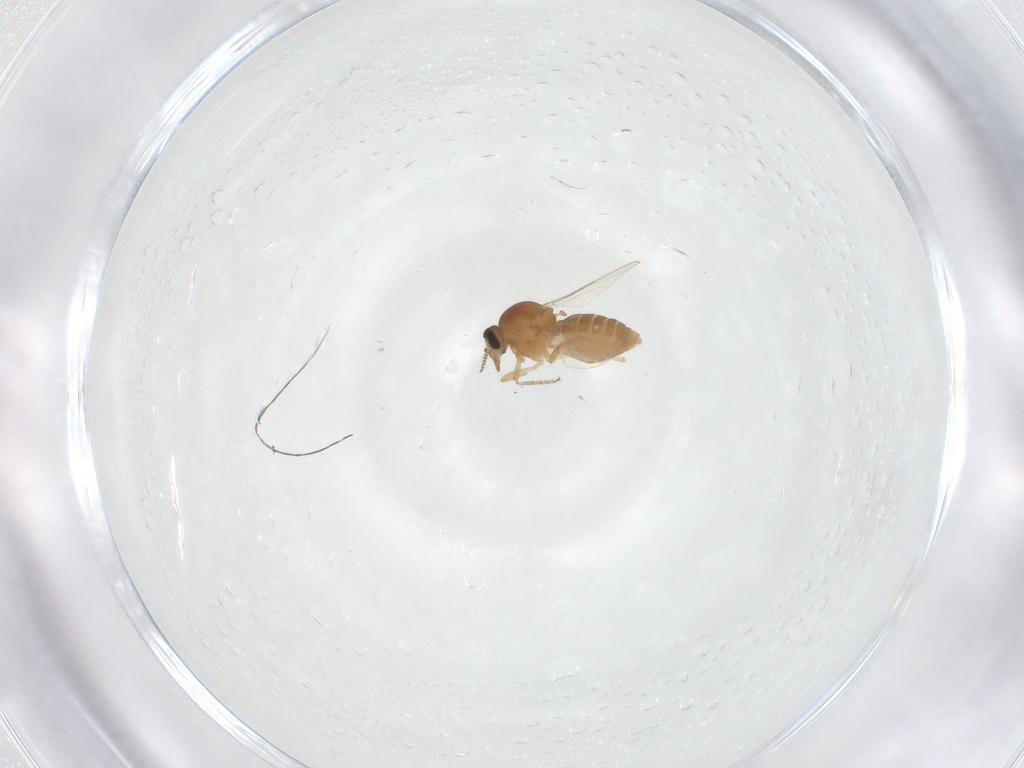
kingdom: Animalia
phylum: Arthropoda
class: Insecta
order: Diptera
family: Ceratopogonidae
